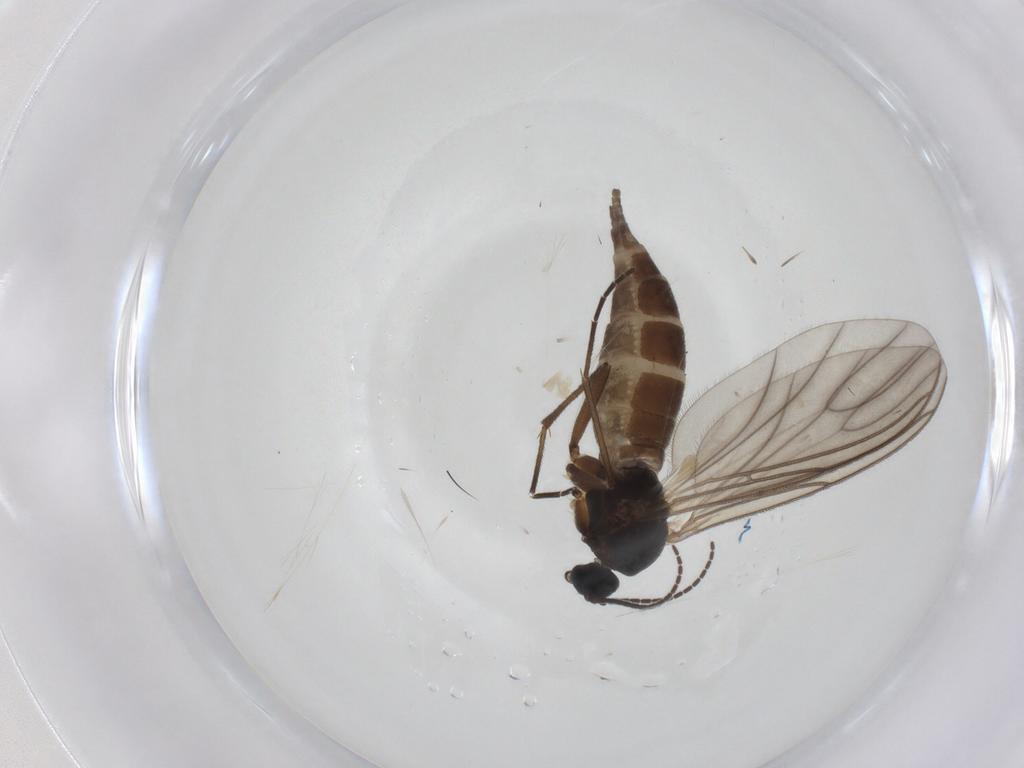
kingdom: Animalia
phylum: Arthropoda
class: Insecta
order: Diptera
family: Sciaridae
